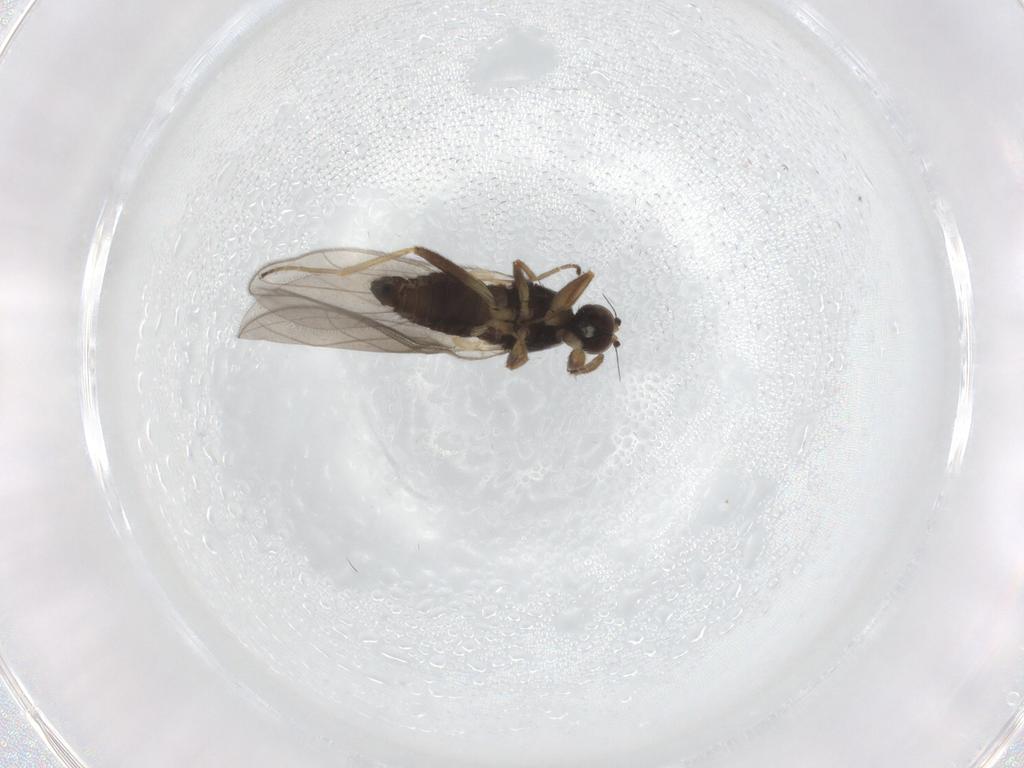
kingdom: Animalia
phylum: Arthropoda
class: Insecta
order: Diptera
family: Hybotidae
